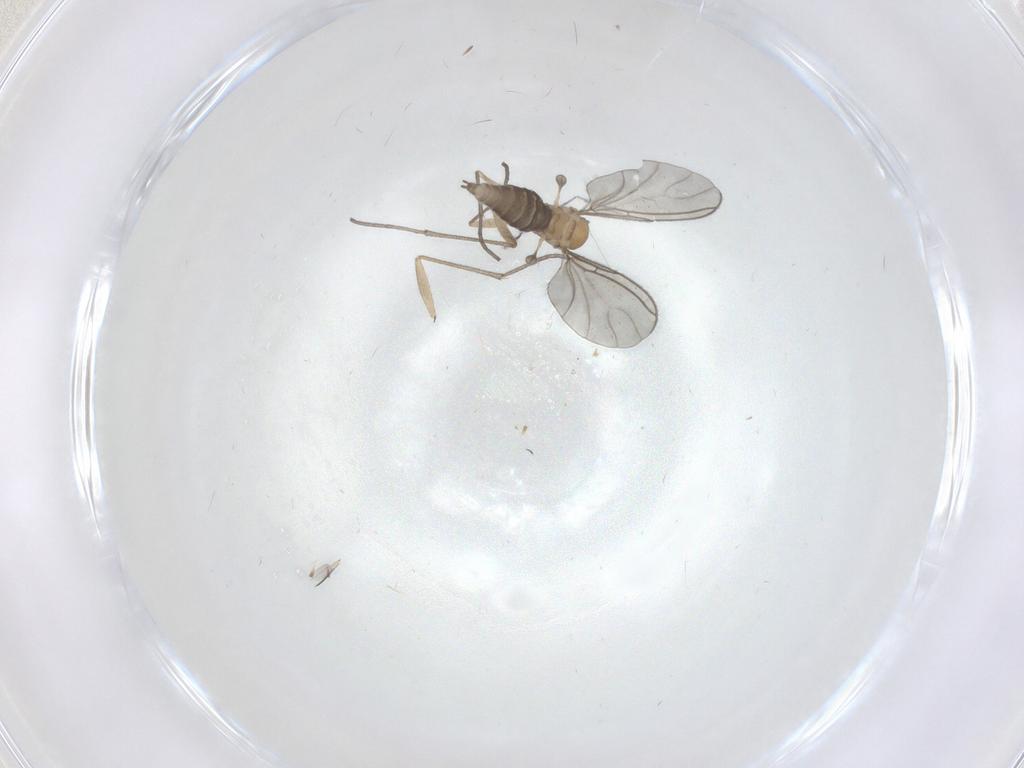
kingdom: Animalia
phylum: Arthropoda
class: Insecta
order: Diptera
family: Sciaridae
